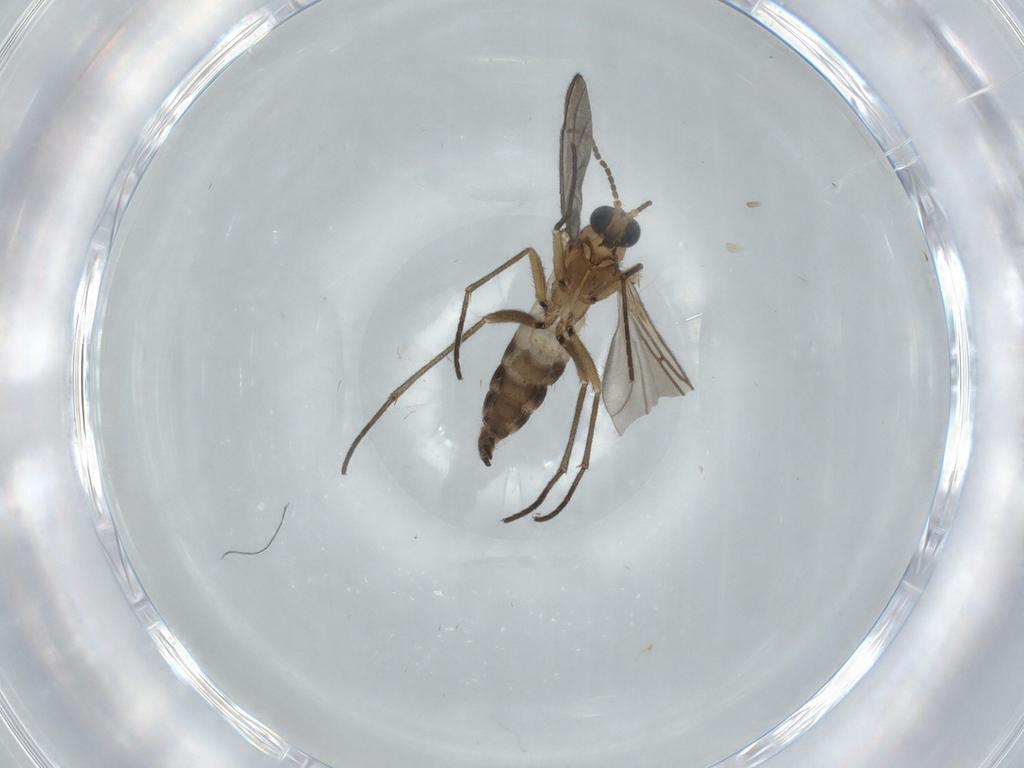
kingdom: Animalia
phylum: Arthropoda
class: Insecta
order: Diptera
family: Sciaridae
